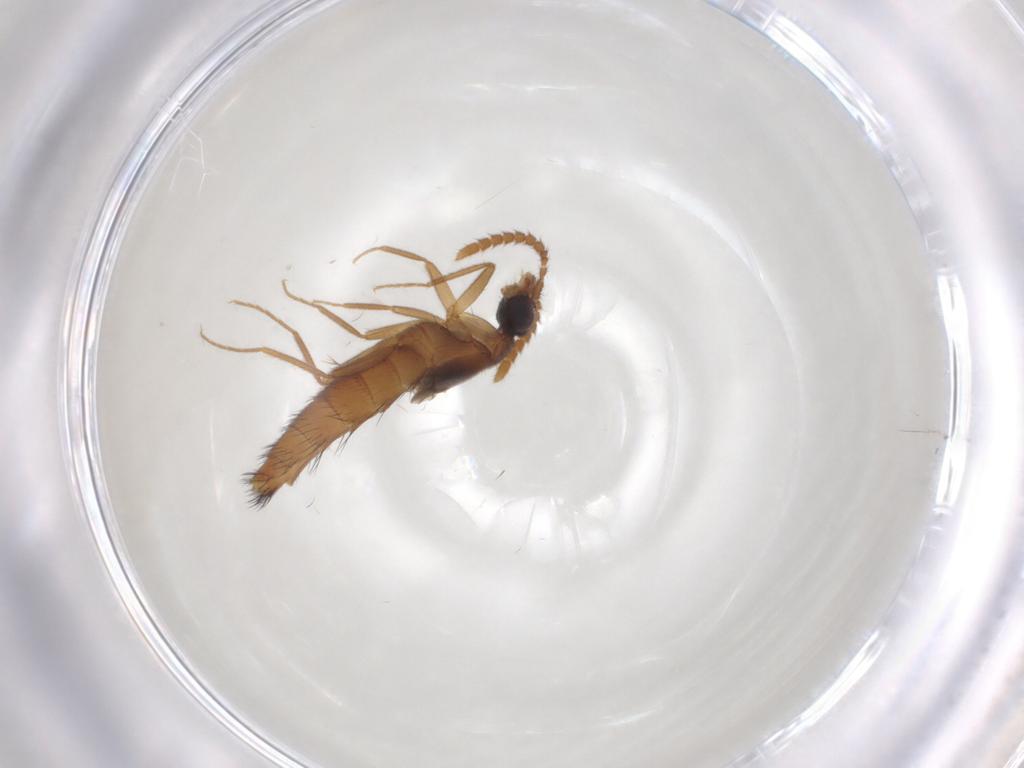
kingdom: Animalia
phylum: Arthropoda
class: Insecta
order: Coleoptera
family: Staphylinidae
